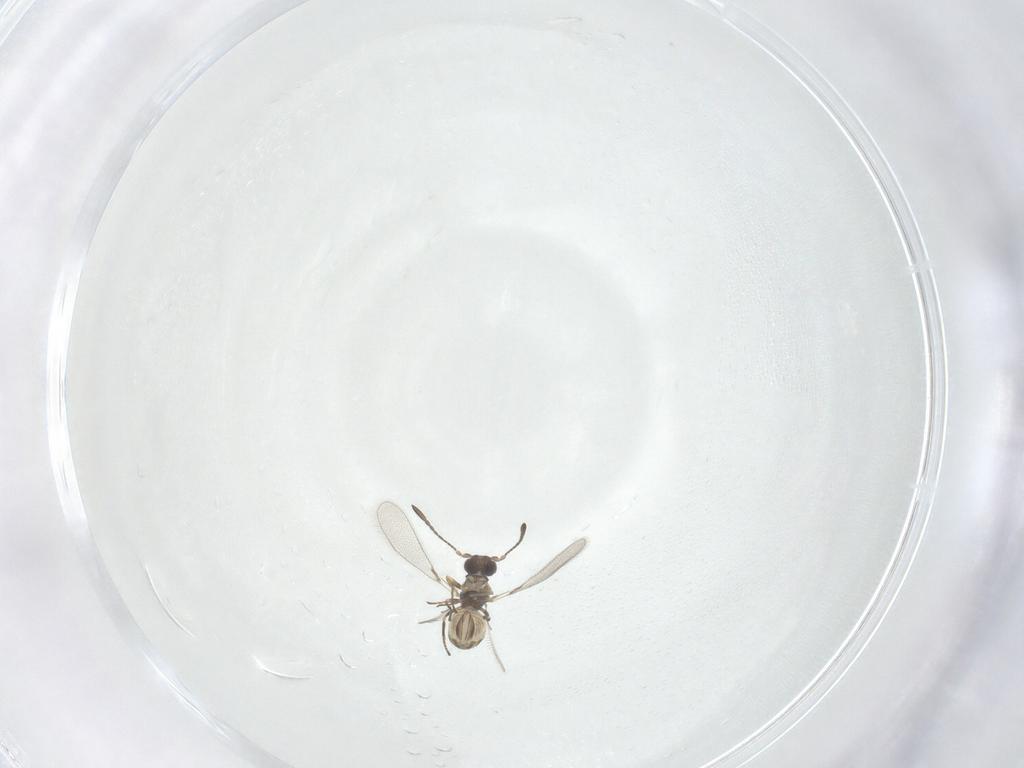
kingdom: Animalia
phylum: Arthropoda
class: Insecta
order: Hymenoptera
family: Mymaridae
